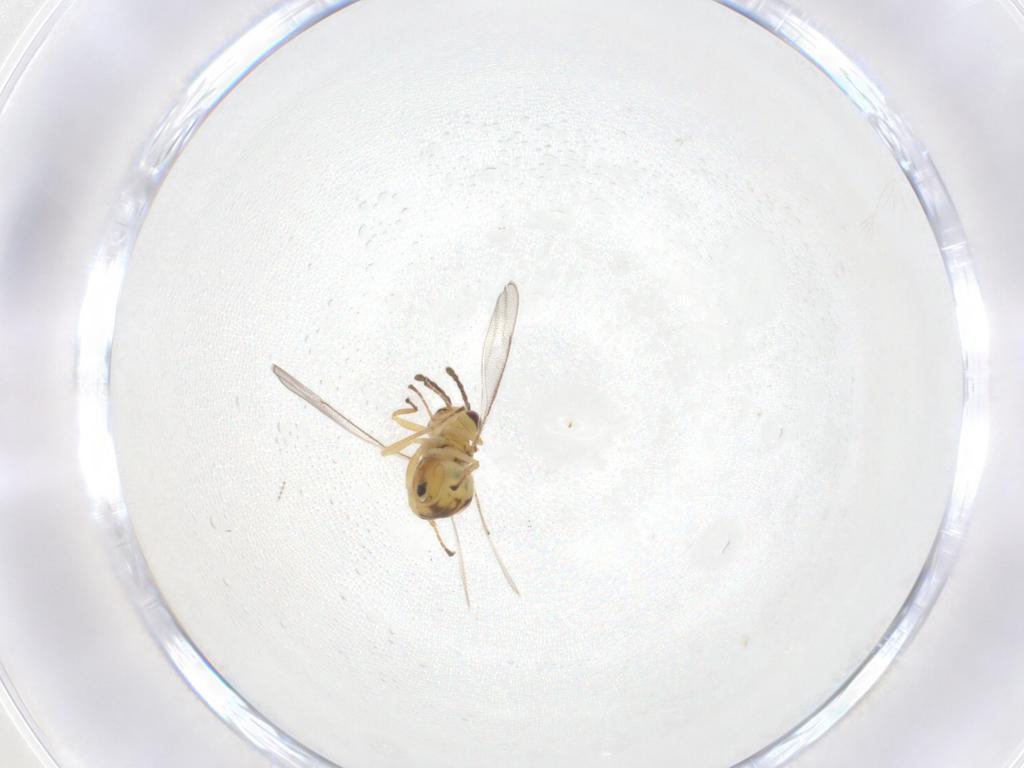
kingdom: Animalia
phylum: Arthropoda
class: Insecta
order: Hymenoptera
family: Eulophidae
